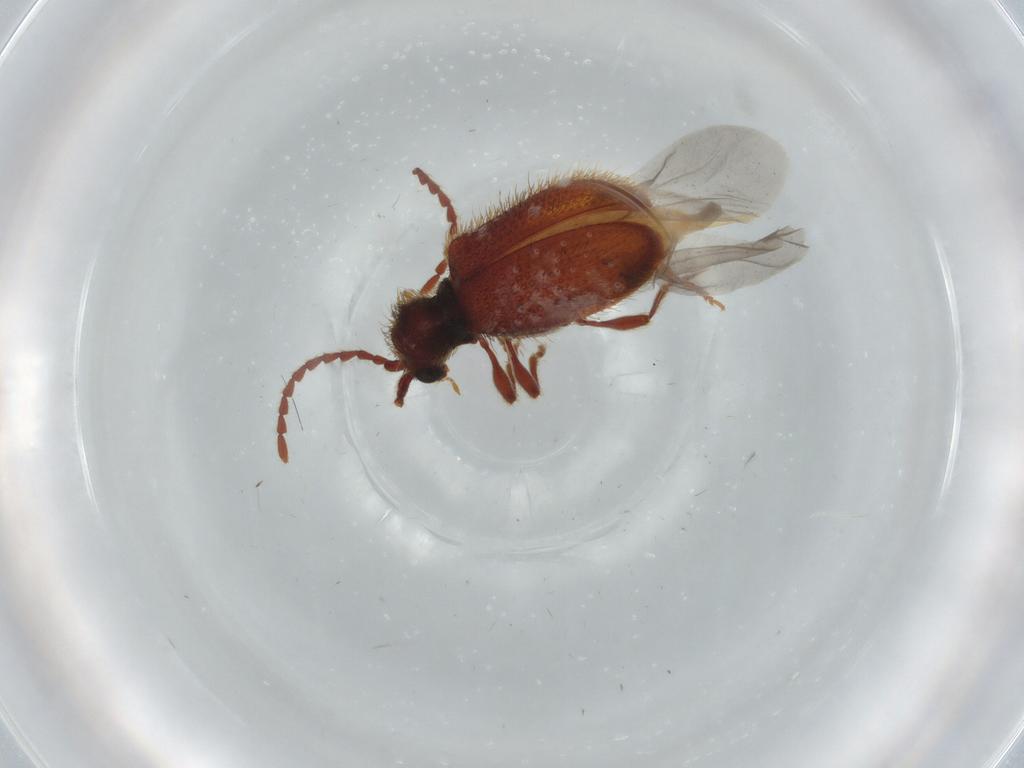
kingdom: Animalia
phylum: Arthropoda
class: Insecta
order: Coleoptera
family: Ptinidae
